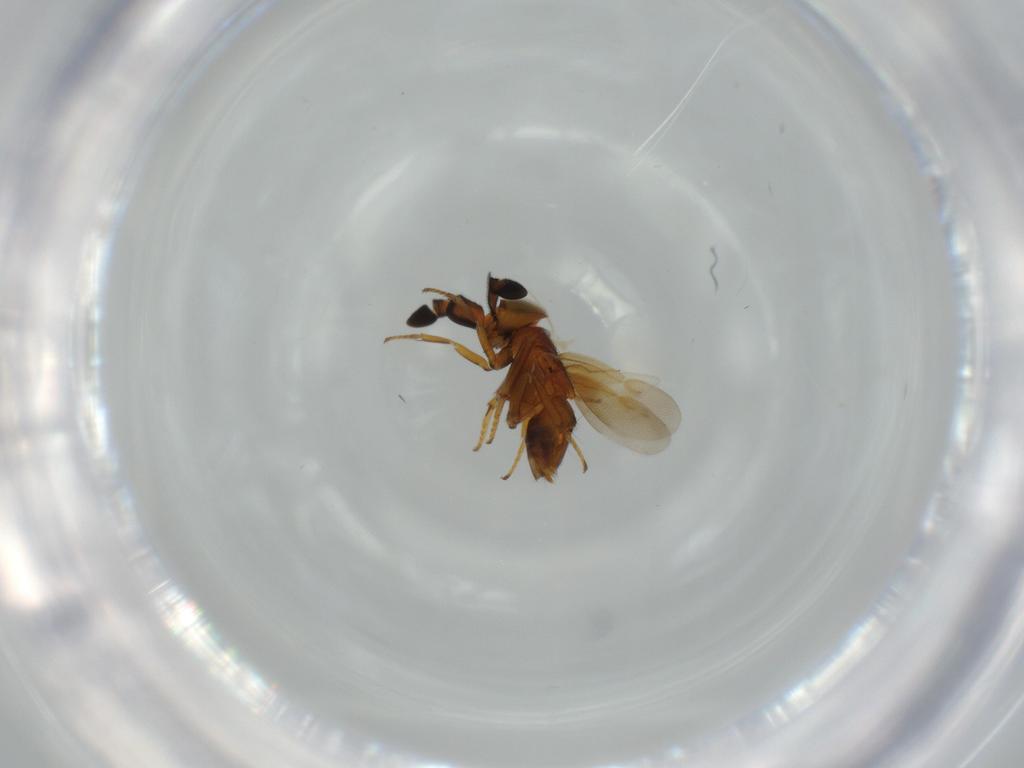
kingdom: Animalia
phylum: Arthropoda
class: Insecta
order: Hymenoptera
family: Encyrtidae
